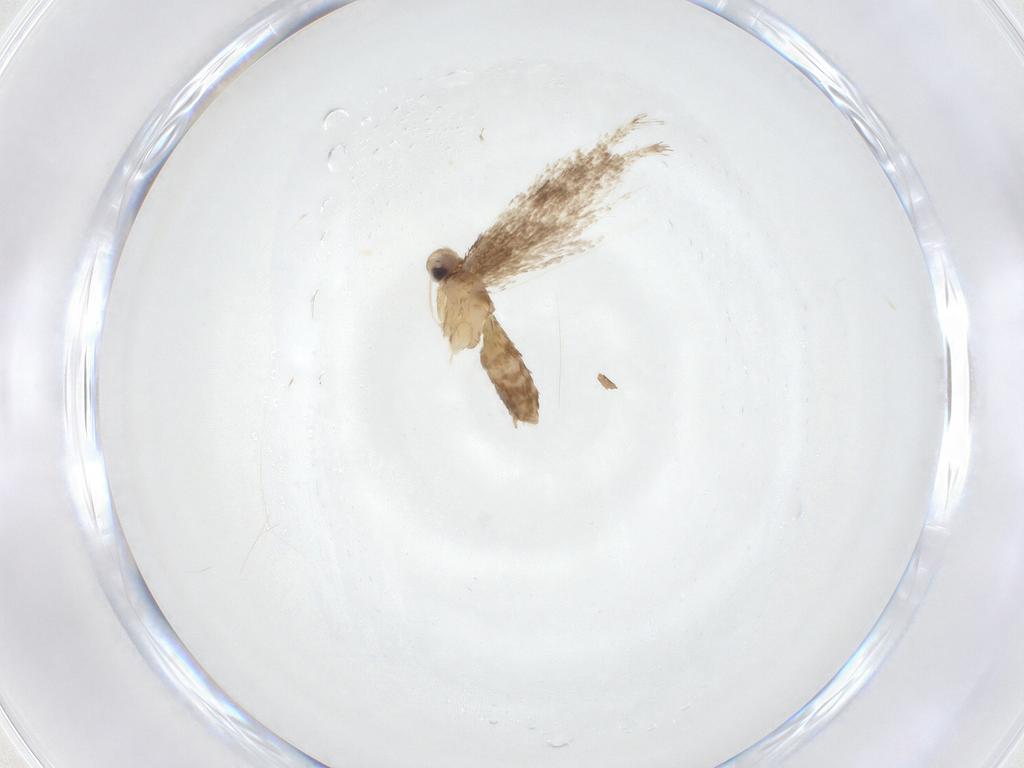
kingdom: Animalia
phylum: Arthropoda
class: Insecta
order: Lepidoptera
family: Tortricidae
